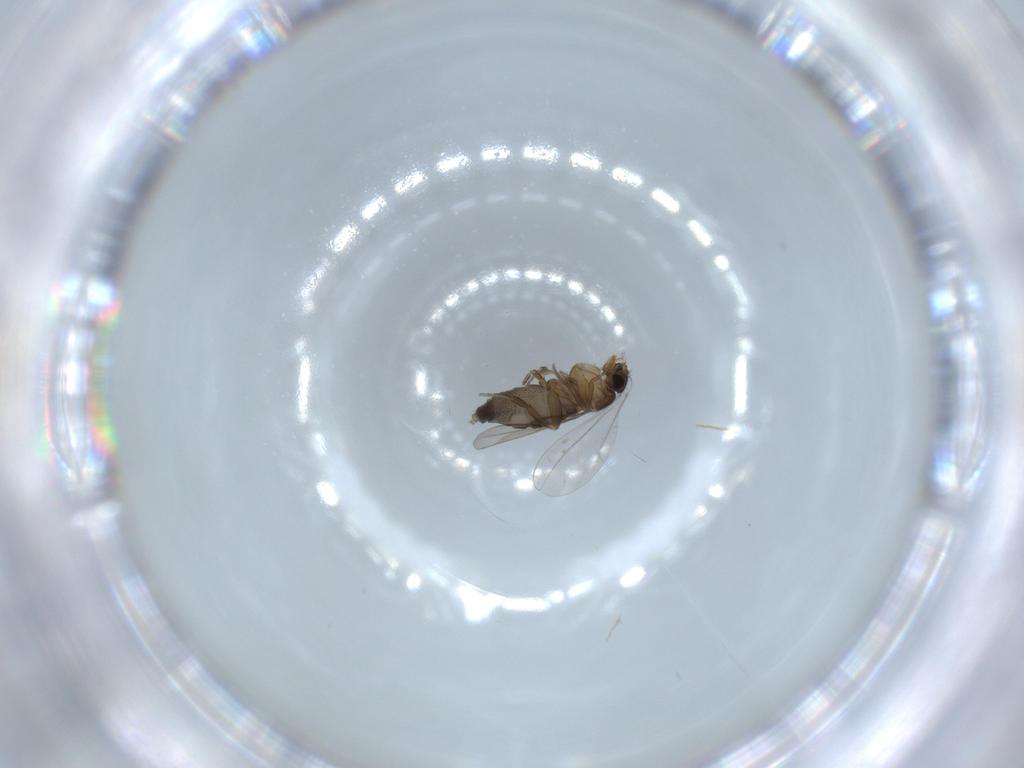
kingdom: Animalia
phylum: Arthropoda
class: Insecta
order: Diptera
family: Phoridae
